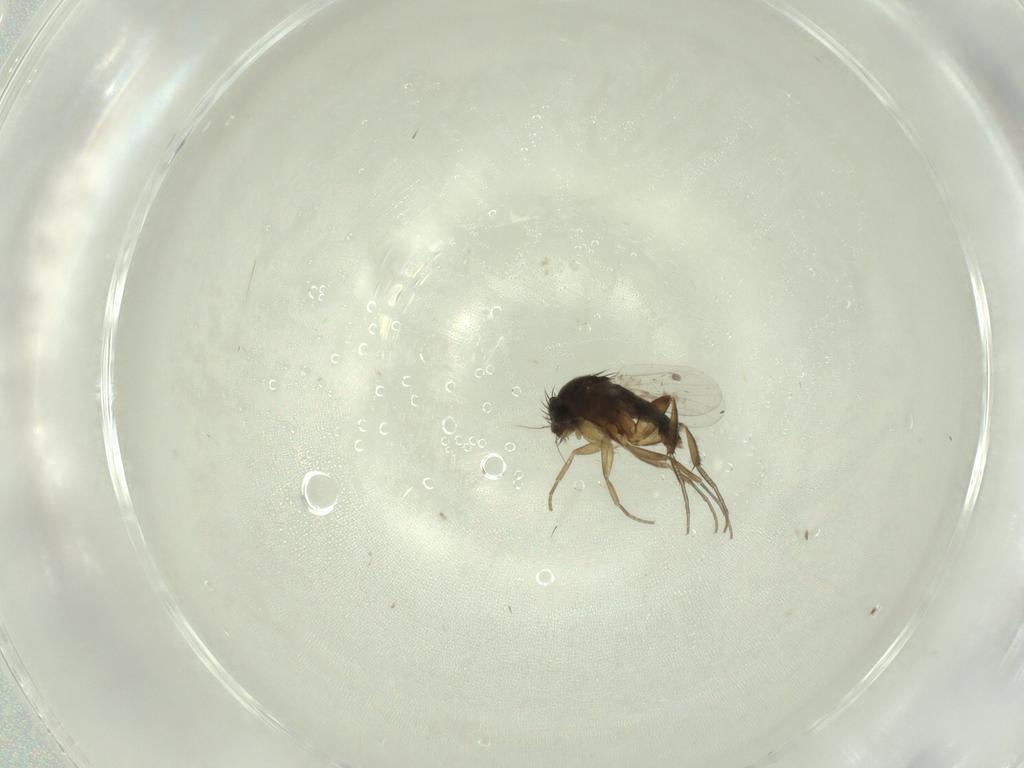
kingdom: Animalia
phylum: Arthropoda
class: Insecta
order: Diptera
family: Phoridae
